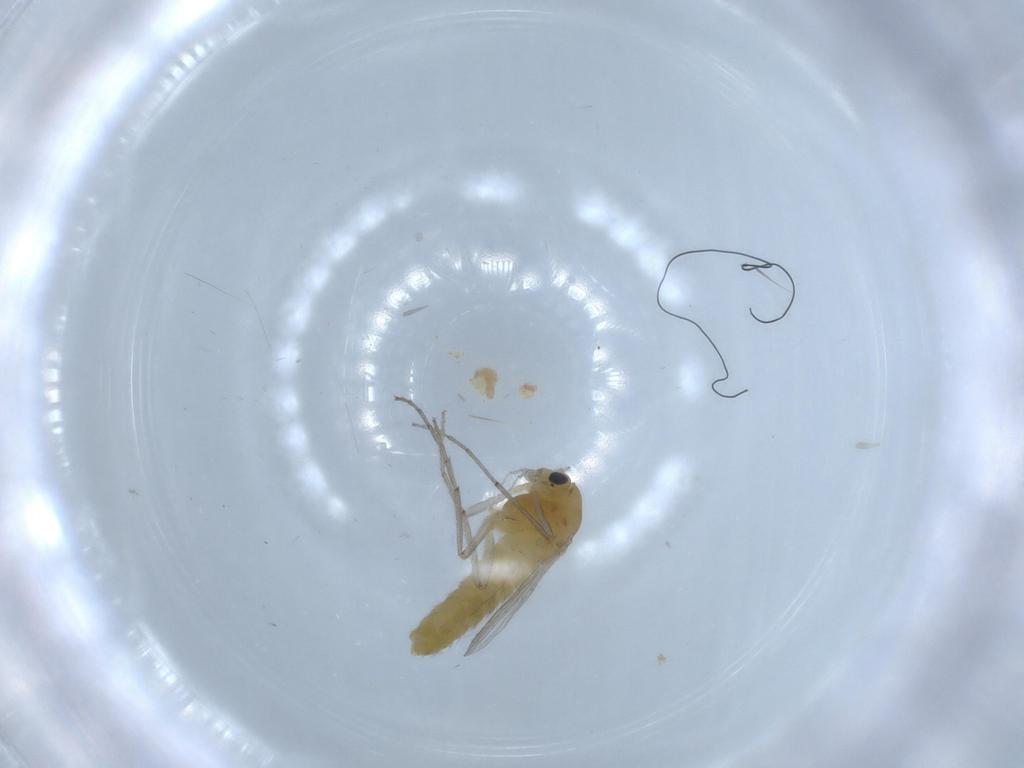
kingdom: Animalia
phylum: Arthropoda
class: Insecta
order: Diptera
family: Chironomidae
